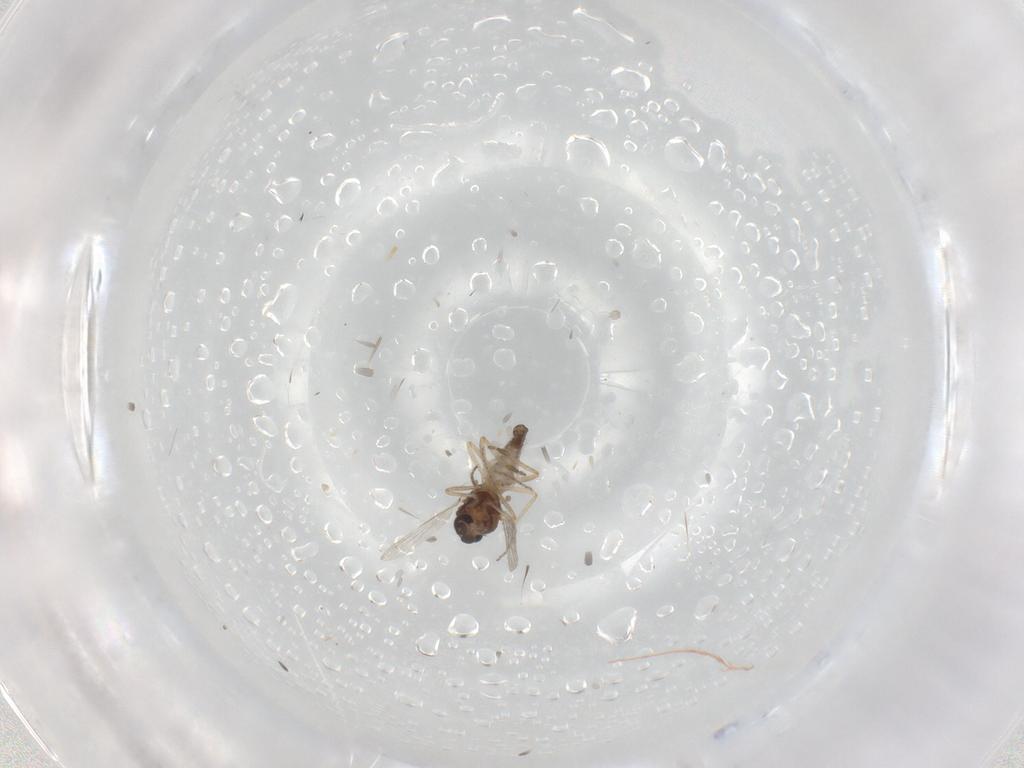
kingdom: Animalia
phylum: Arthropoda
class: Insecta
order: Diptera
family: Ceratopogonidae
